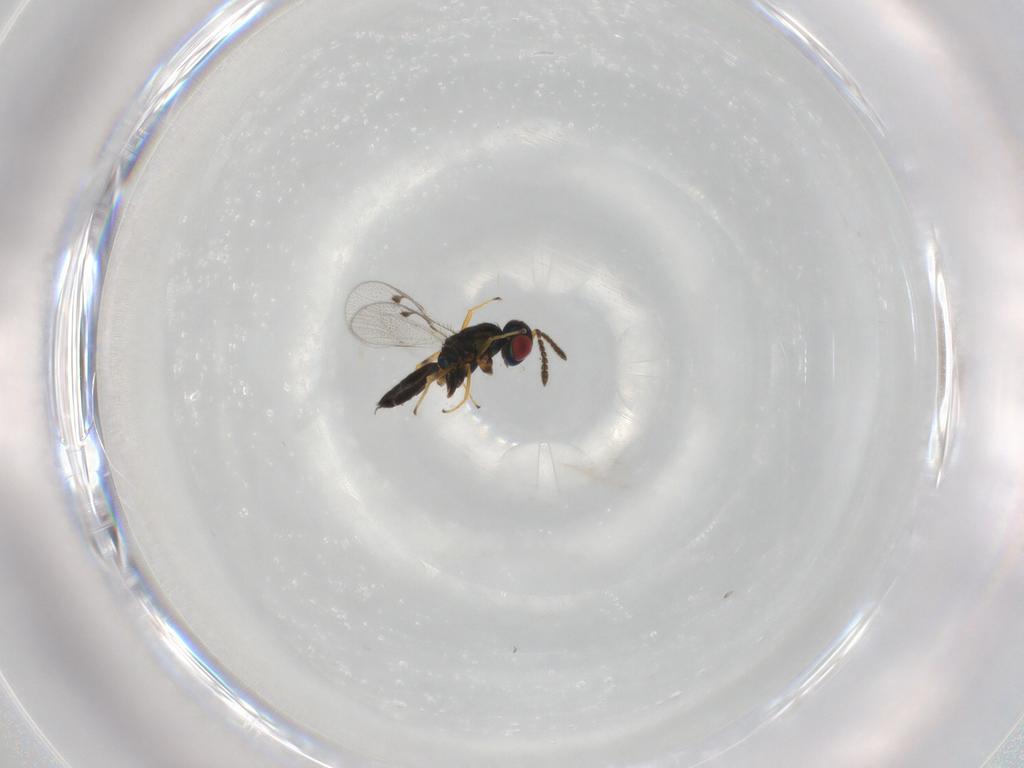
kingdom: Animalia
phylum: Arthropoda
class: Insecta
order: Hymenoptera
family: Pteromalidae
